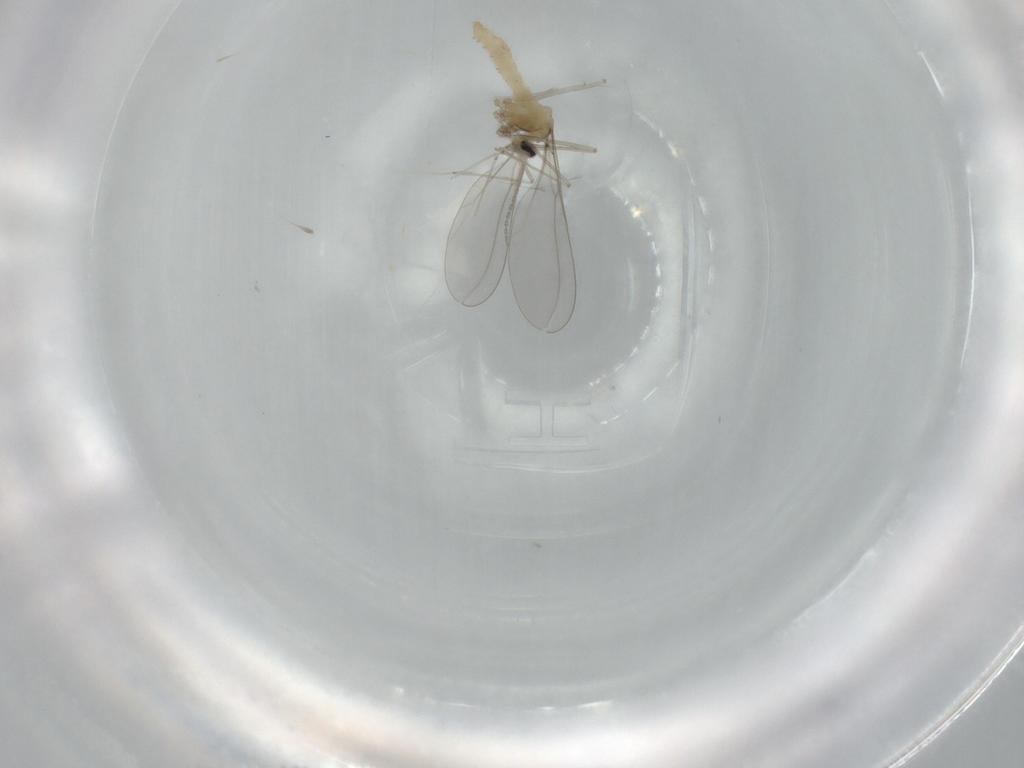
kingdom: Animalia
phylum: Arthropoda
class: Insecta
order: Diptera
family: Cecidomyiidae
